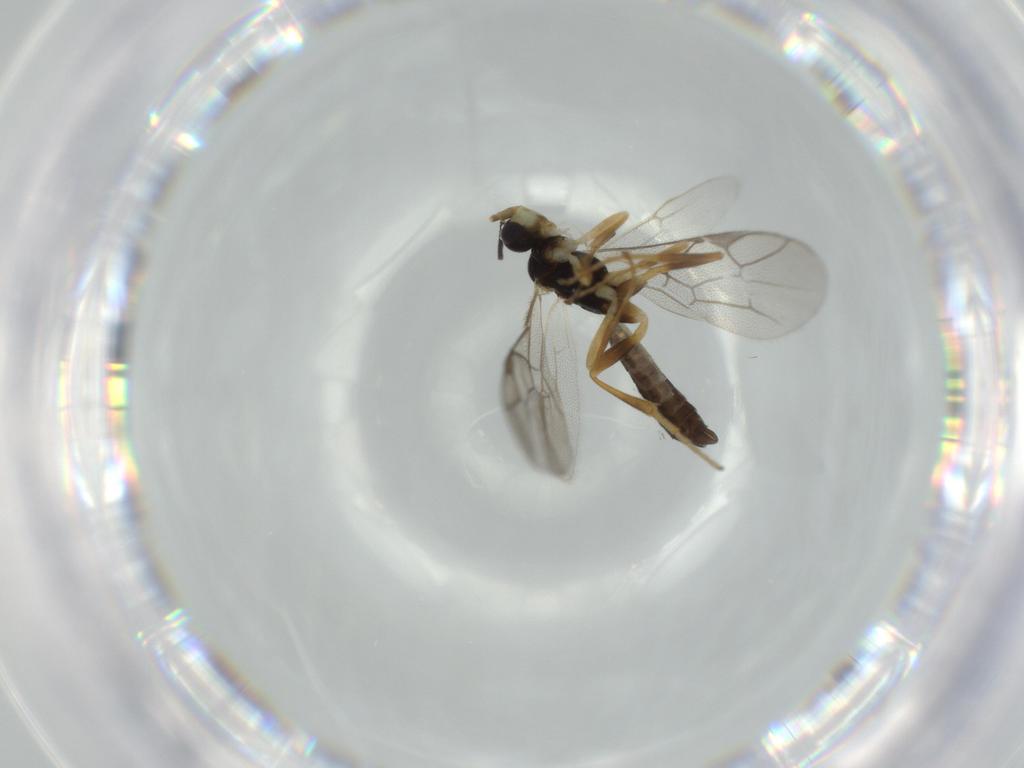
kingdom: Animalia
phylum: Arthropoda
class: Insecta
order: Hymenoptera
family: Ichneumonidae
